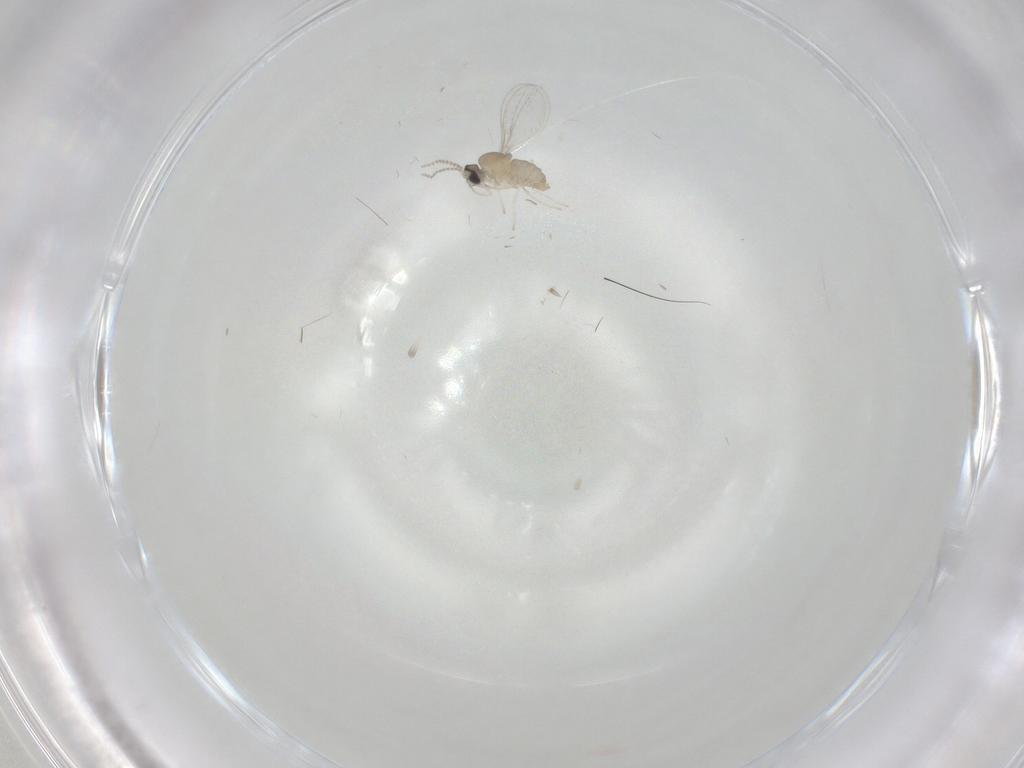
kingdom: Animalia
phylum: Arthropoda
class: Insecta
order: Diptera
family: Cecidomyiidae
